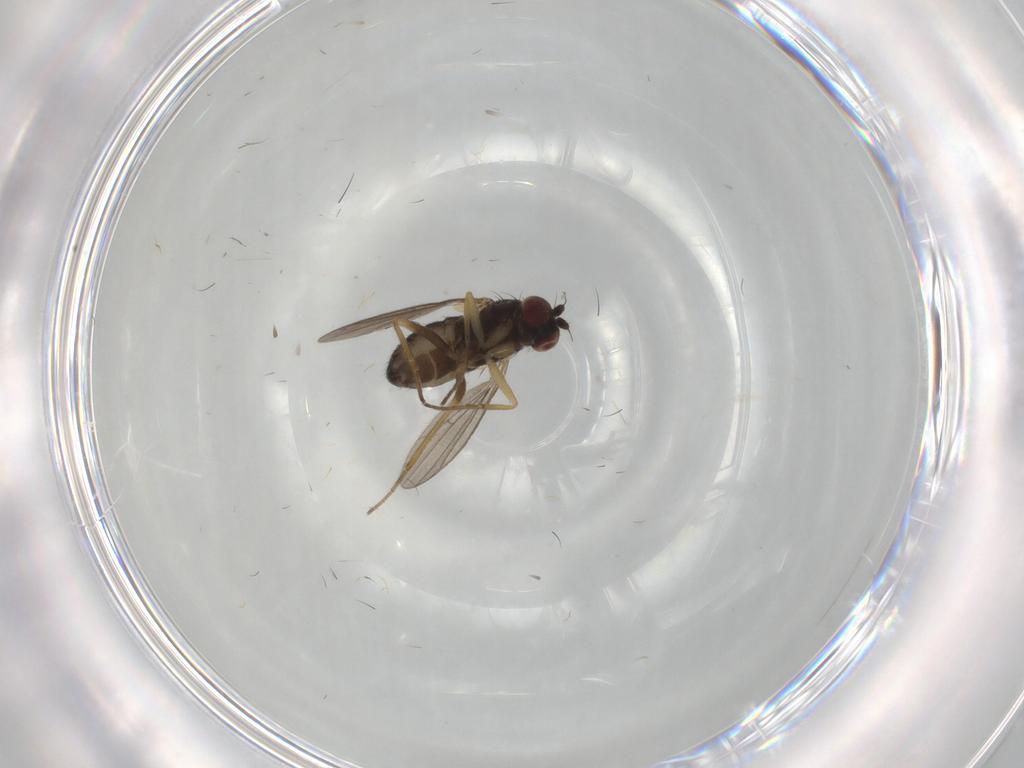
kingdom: Animalia
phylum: Arthropoda
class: Insecta
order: Diptera
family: Dolichopodidae
